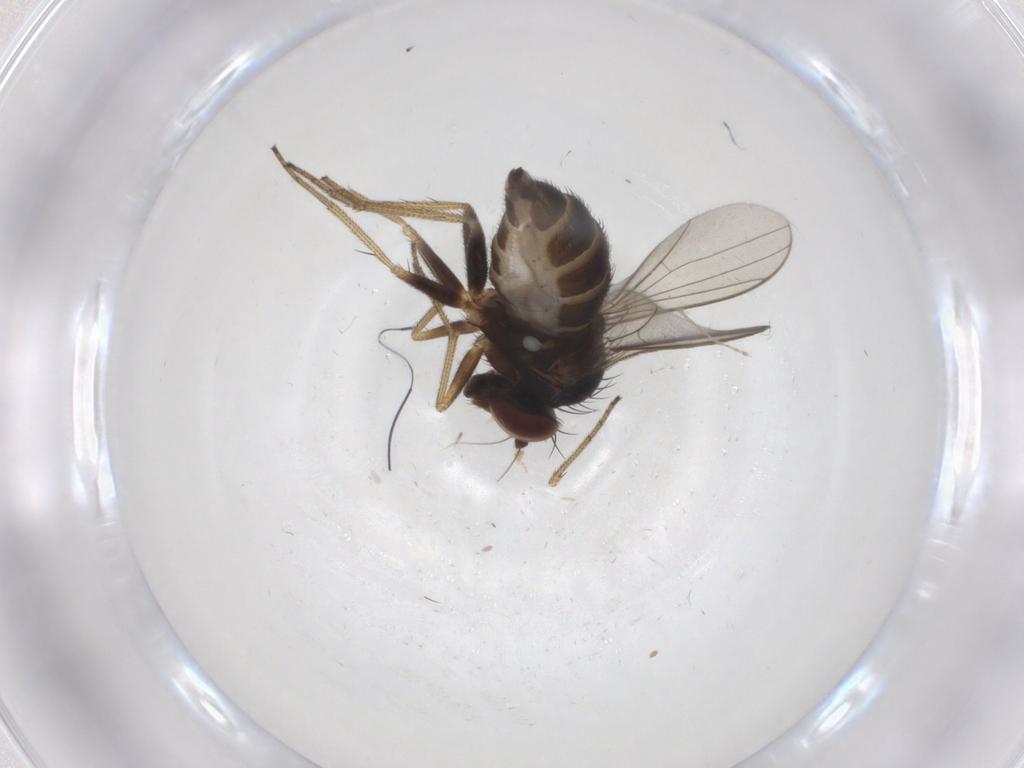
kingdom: Animalia
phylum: Arthropoda
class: Insecta
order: Diptera
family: Dolichopodidae
